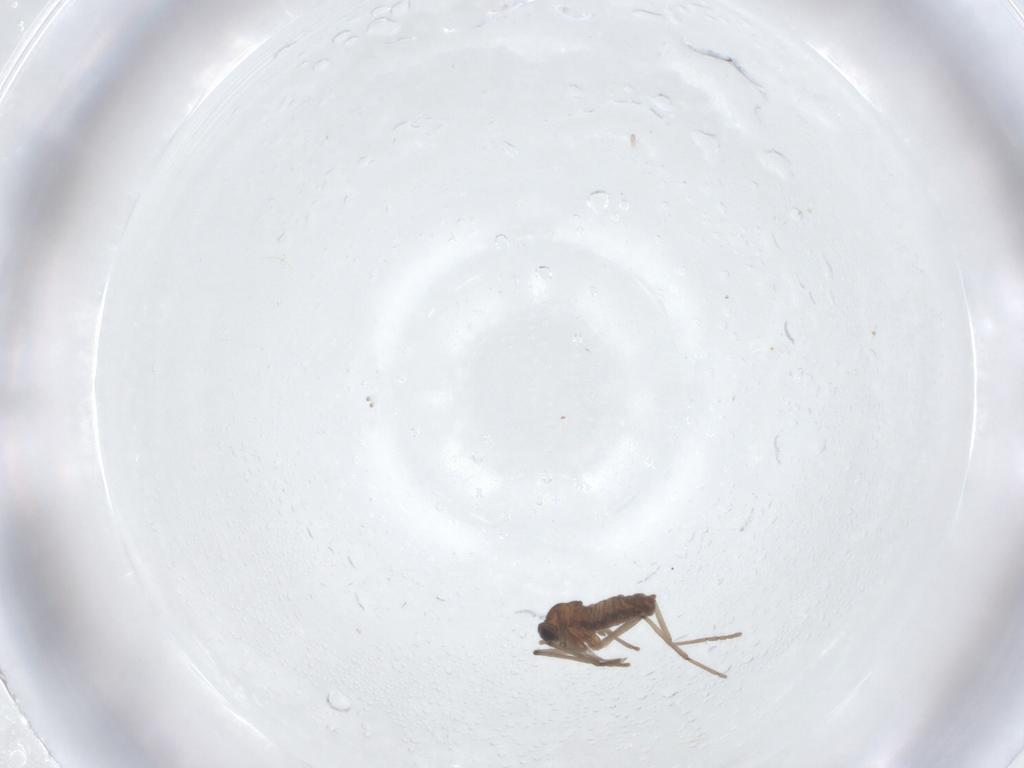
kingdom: Animalia
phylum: Arthropoda
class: Insecta
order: Diptera
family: Cecidomyiidae
